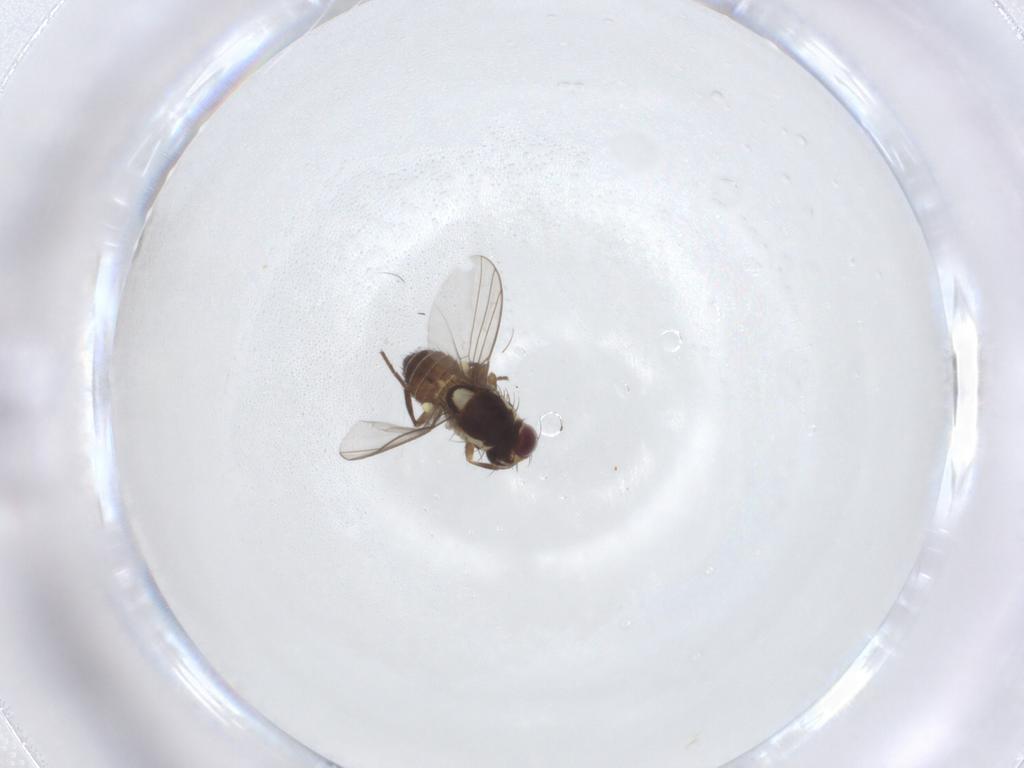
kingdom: Animalia
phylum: Arthropoda
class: Insecta
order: Diptera
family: Agromyzidae
